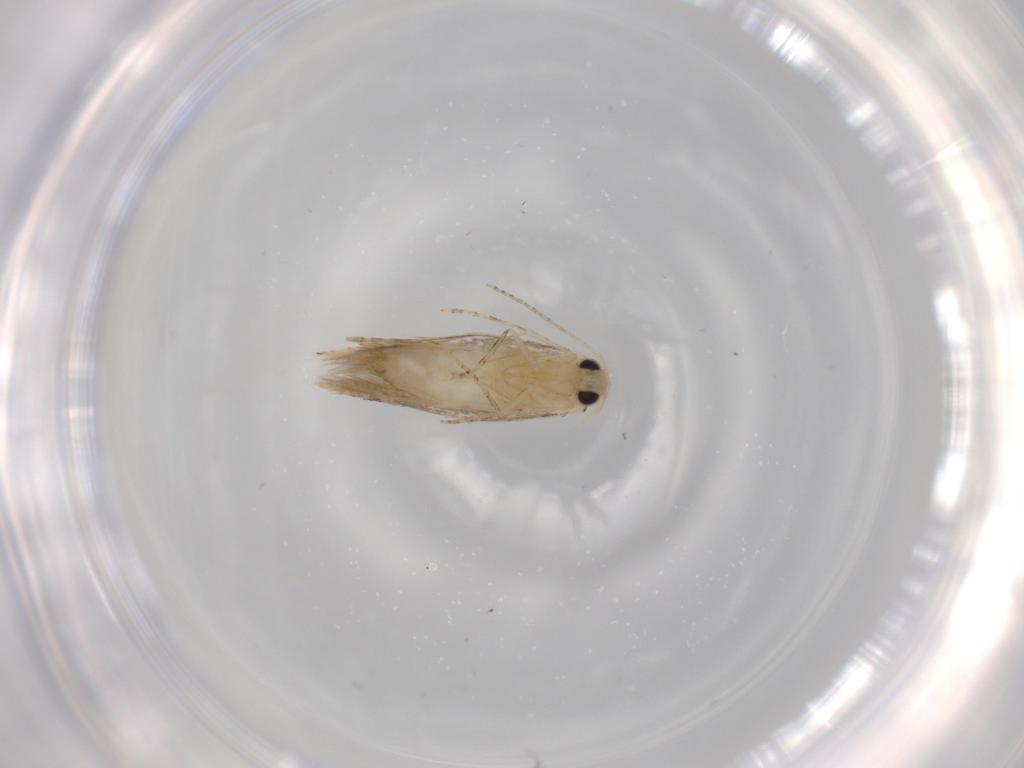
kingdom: Animalia
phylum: Arthropoda
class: Insecta
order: Lepidoptera
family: Bucculatricidae
